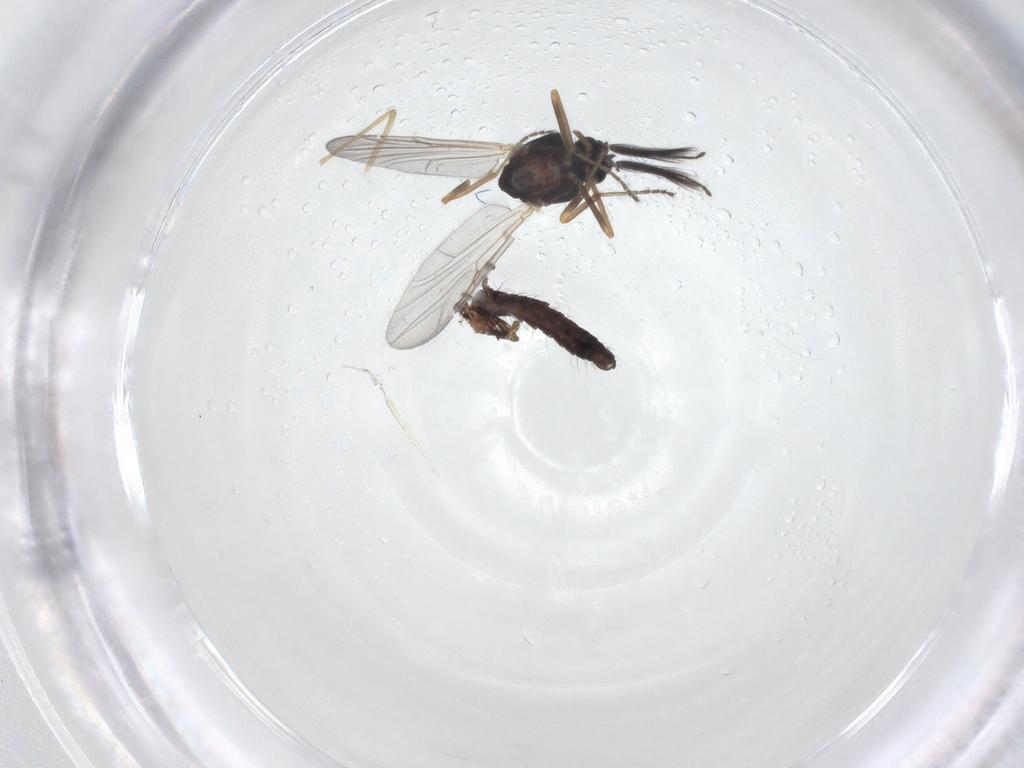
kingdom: Animalia
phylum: Arthropoda
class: Insecta
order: Diptera
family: Ceratopogonidae
